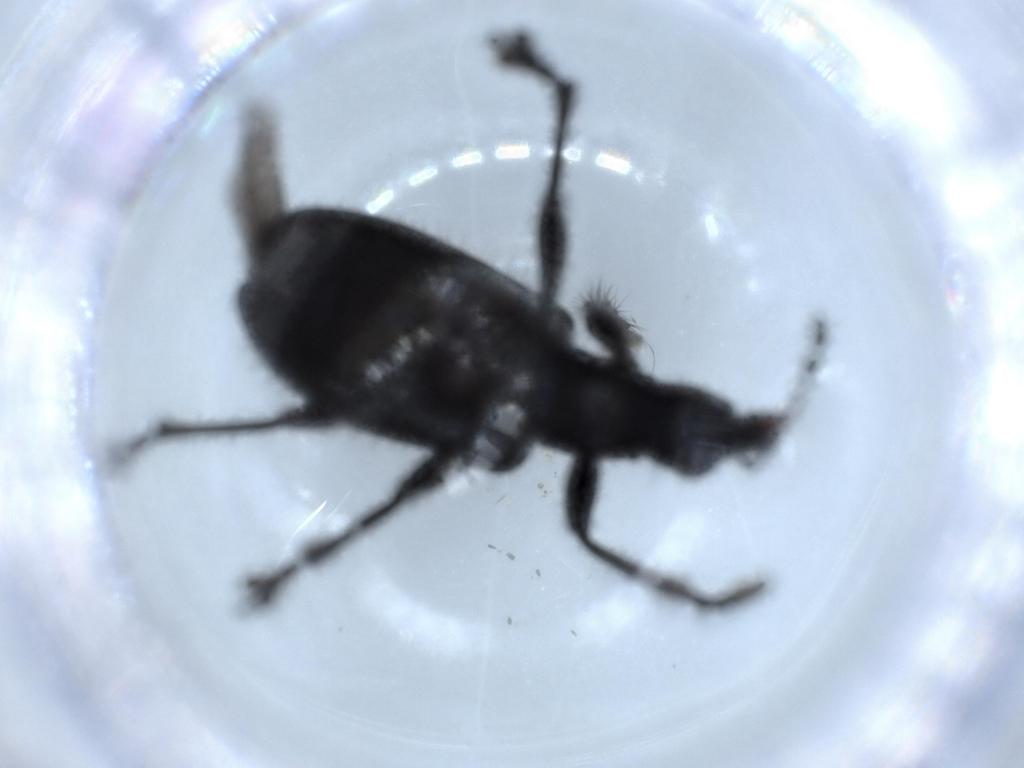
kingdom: Animalia
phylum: Arthropoda
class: Insecta
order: Coleoptera
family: Attelabidae
